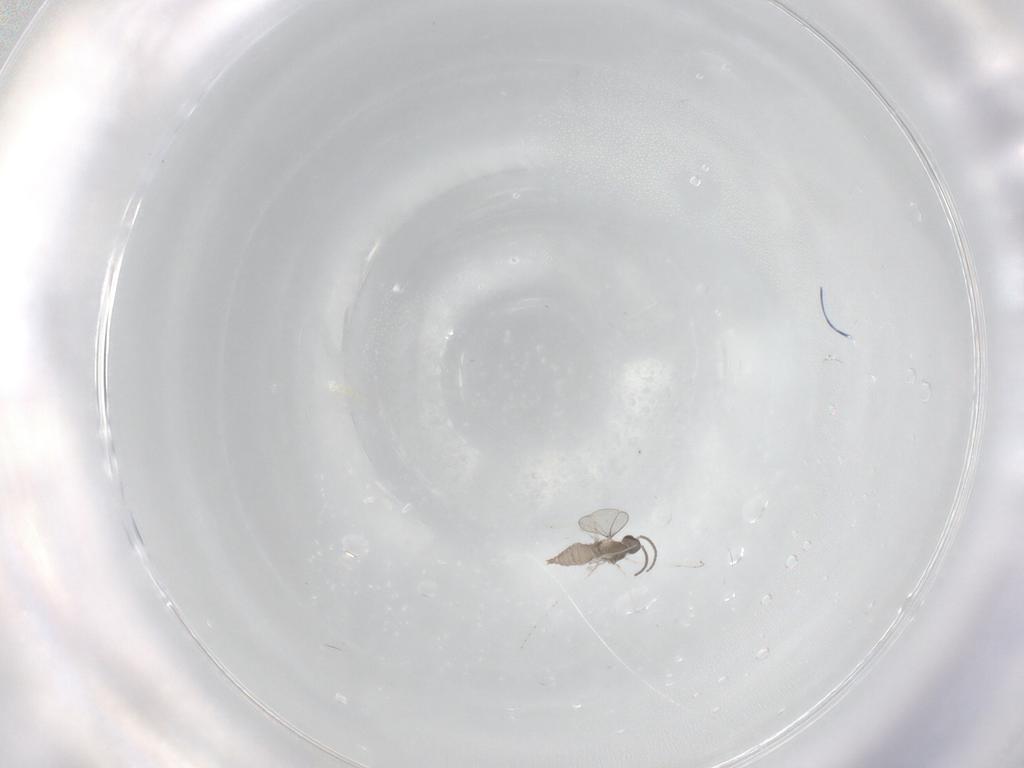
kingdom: Animalia
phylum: Arthropoda
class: Insecta
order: Diptera
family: Cecidomyiidae
